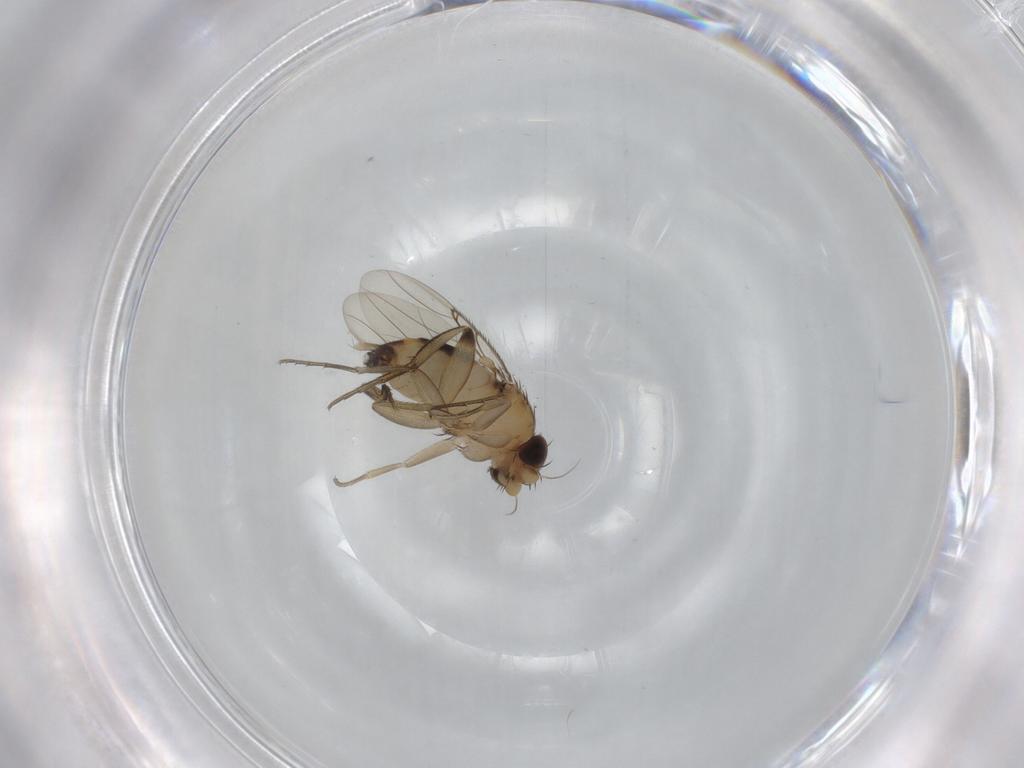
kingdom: Animalia
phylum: Arthropoda
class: Insecta
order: Diptera
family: Phoridae
